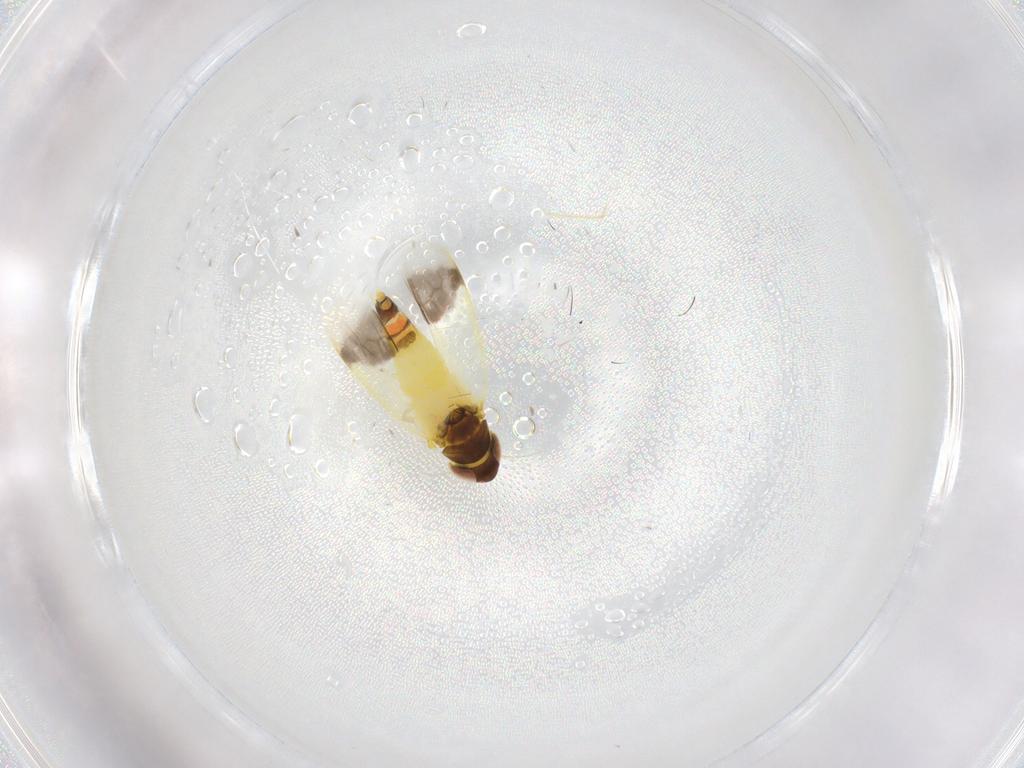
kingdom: Animalia
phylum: Arthropoda
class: Insecta
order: Hemiptera
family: Cicadellidae
